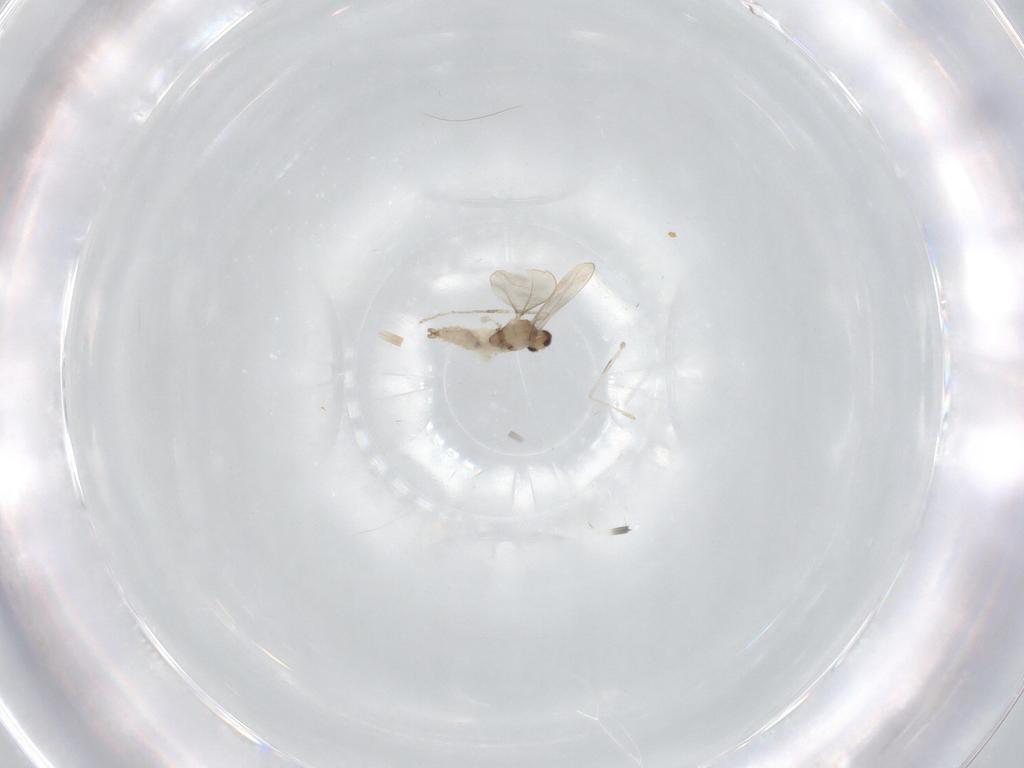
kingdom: Animalia
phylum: Arthropoda
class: Insecta
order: Diptera
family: Cecidomyiidae
